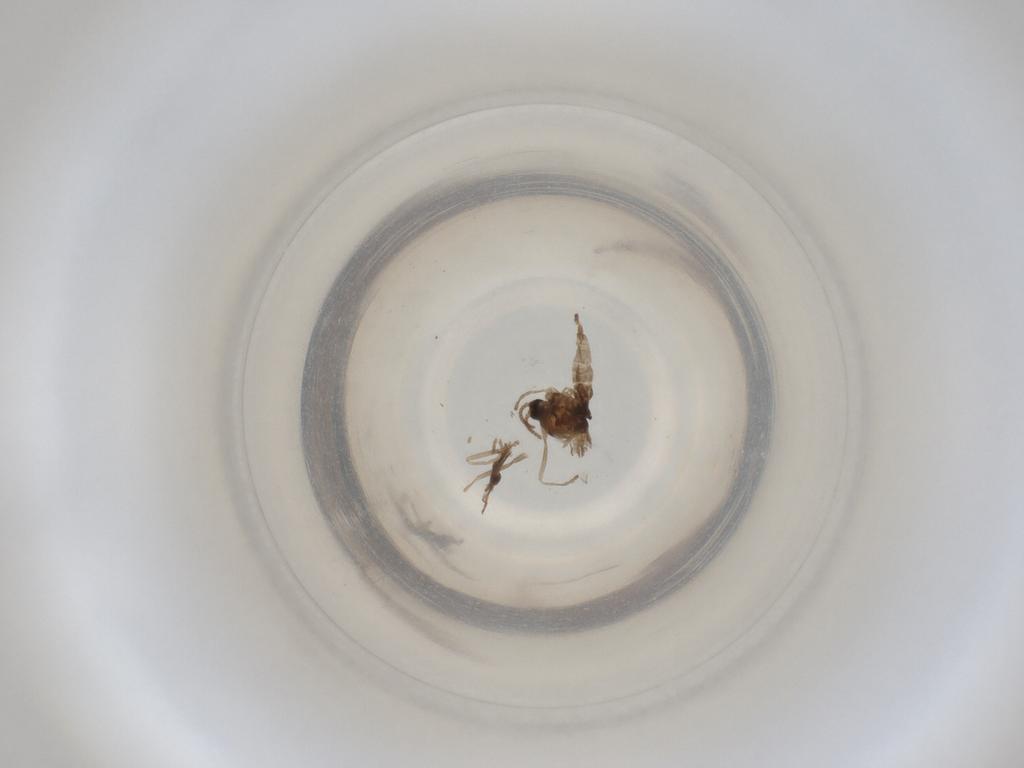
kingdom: Animalia
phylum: Arthropoda
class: Insecta
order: Diptera
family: Cecidomyiidae
